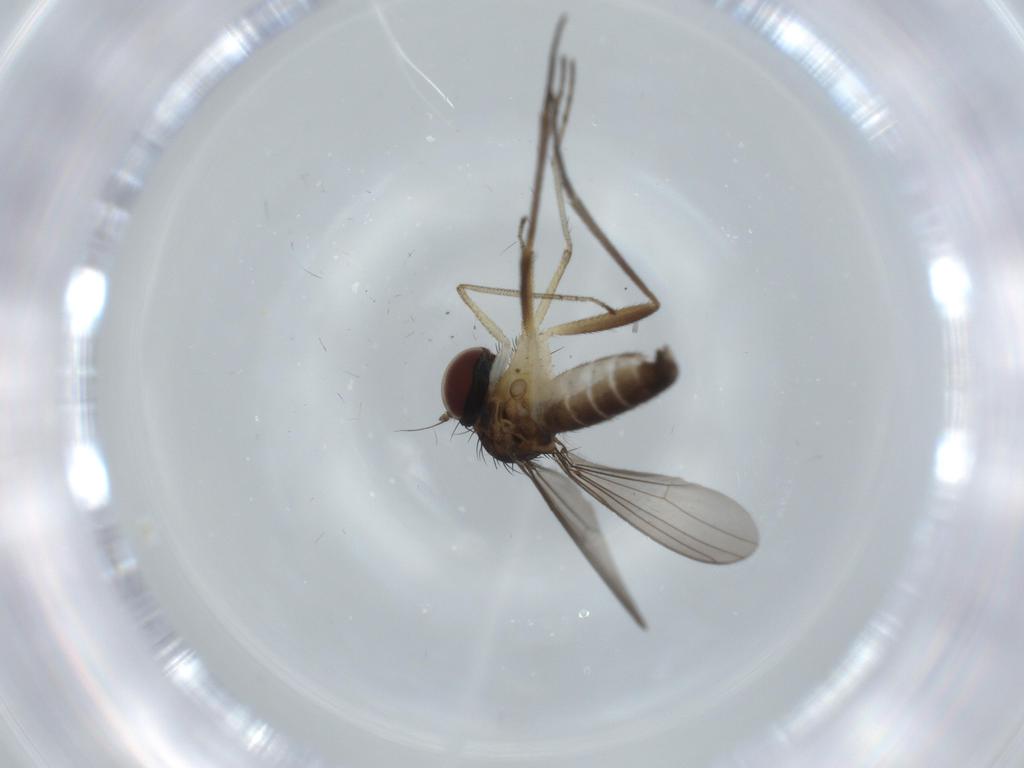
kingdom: Animalia
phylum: Arthropoda
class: Insecta
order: Diptera
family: Dolichopodidae
